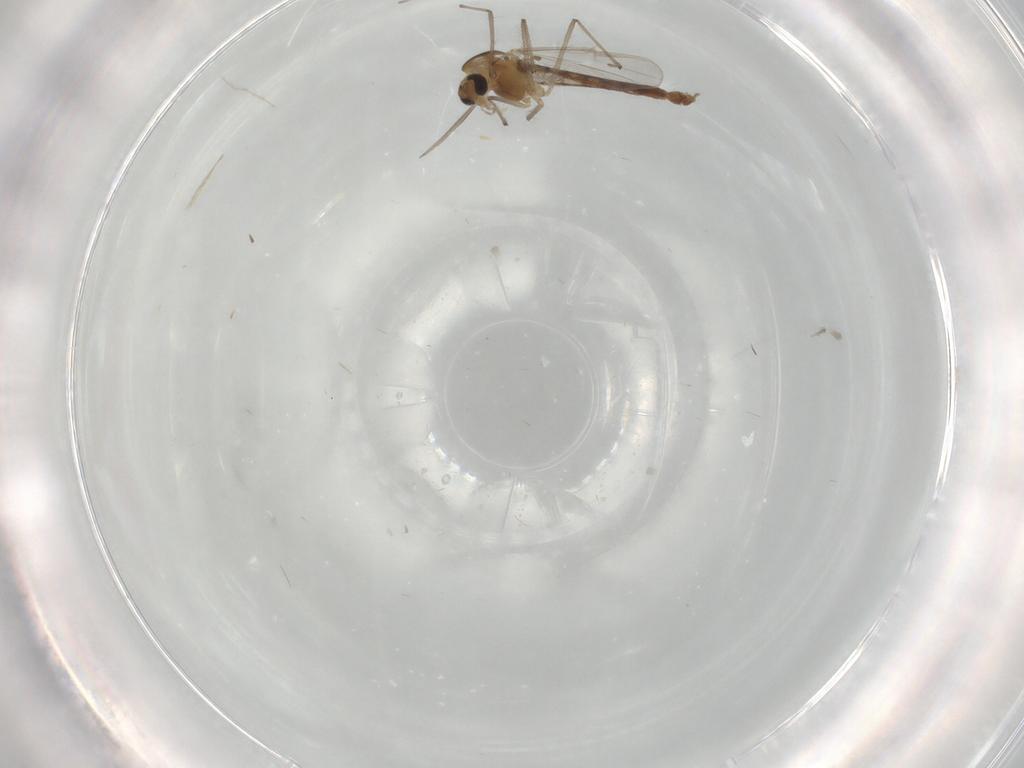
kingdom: Animalia
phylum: Arthropoda
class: Insecta
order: Diptera
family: Chironomidae
